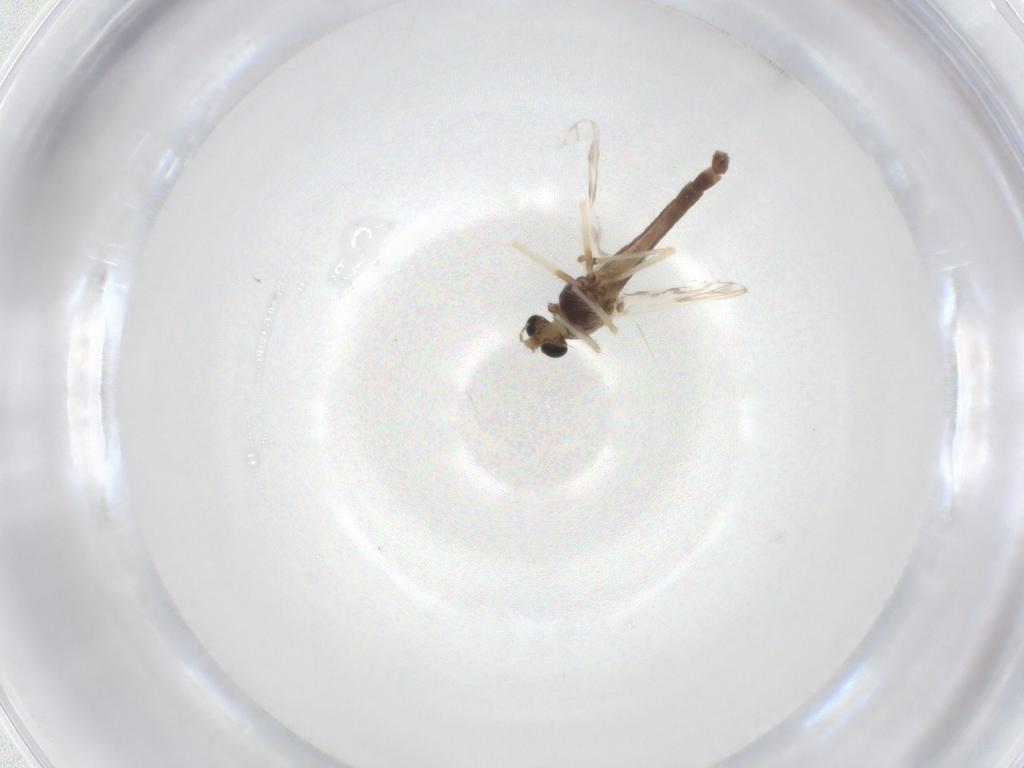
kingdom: Animalia
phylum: Arthropoda
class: Insecta
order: Diptera
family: Chironomidae
